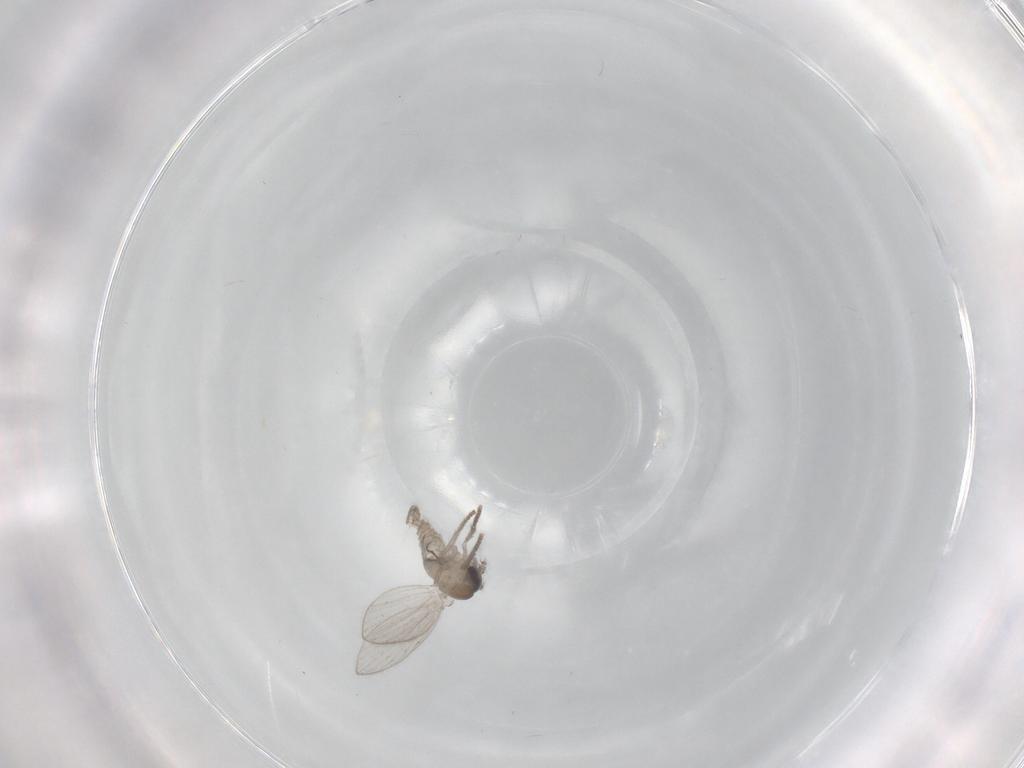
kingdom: Animalia
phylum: Arthropoda
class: Insecta
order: Diptera
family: Psychodidae
